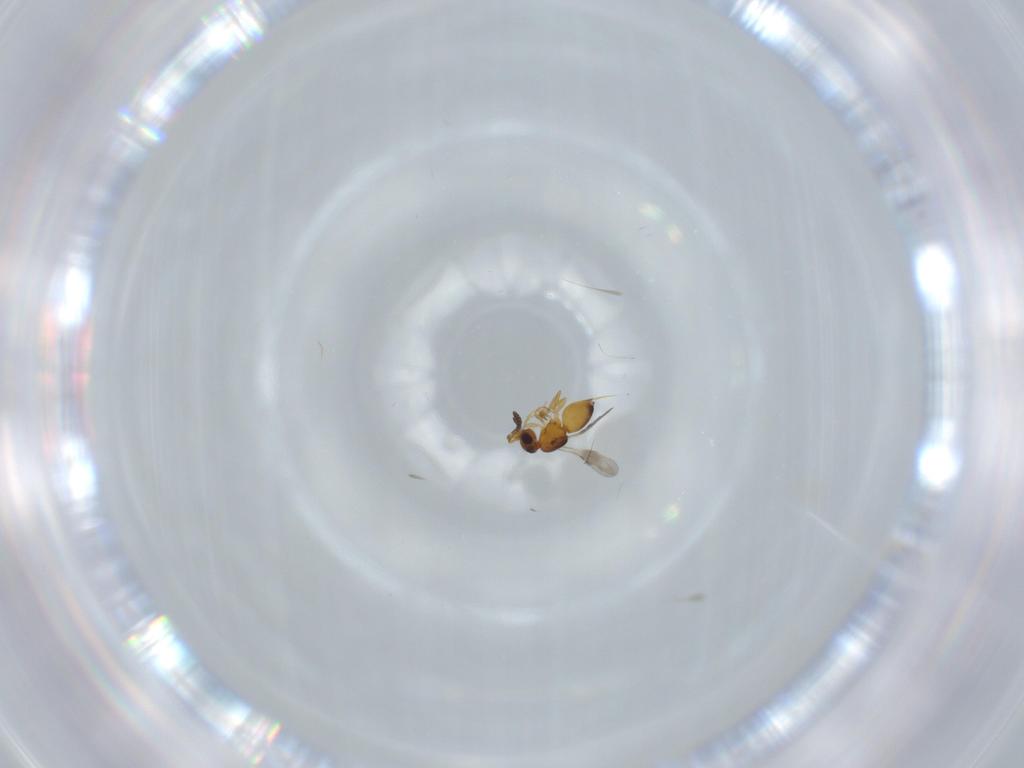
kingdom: Animalia
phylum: Arthropoda
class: Insecta
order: Hymenoptera
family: Ceraphronidae
